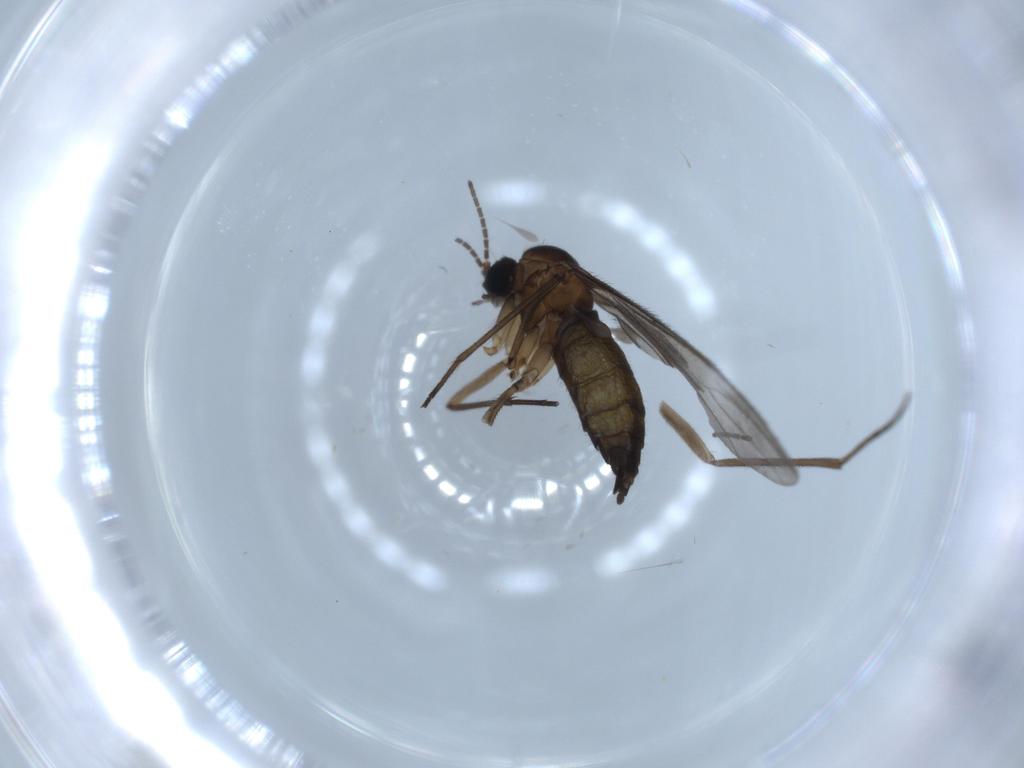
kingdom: Animalia
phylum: Arthropoda
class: Insecta
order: Diptera
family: Sciaridae
